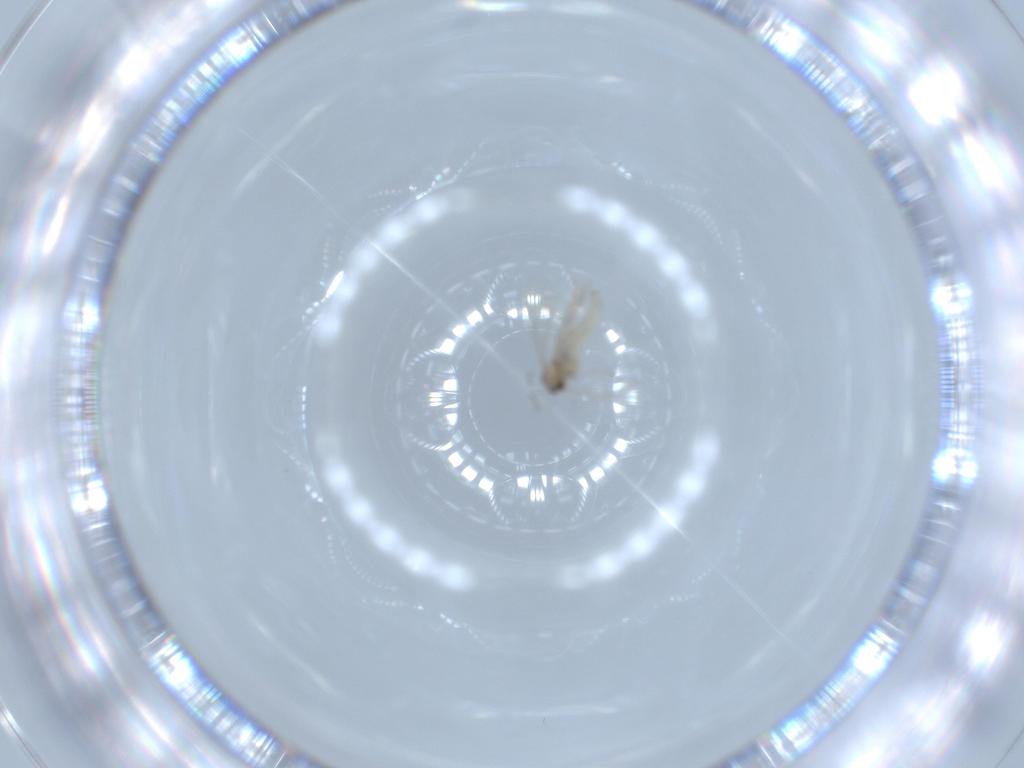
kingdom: Animalia
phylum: Arthropoda
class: Insecta
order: Diptera
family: Cecidomyiidae
